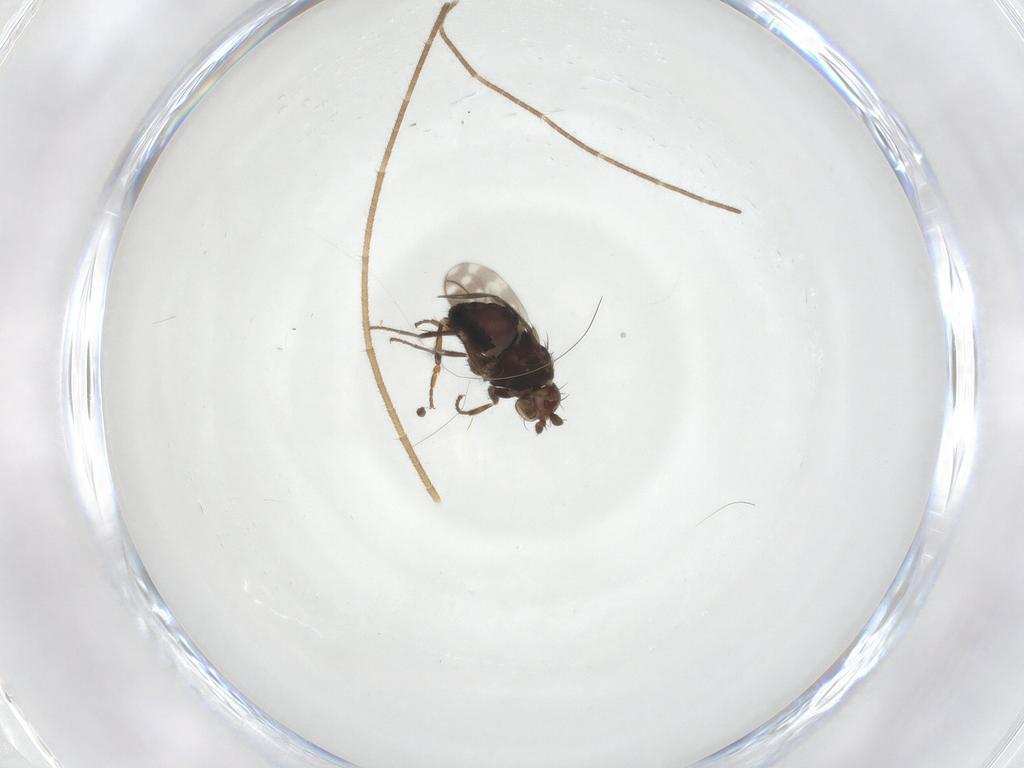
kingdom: Animalia
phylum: Arthropoda
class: Insecta
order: Diptera
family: Sphaeroceridae
